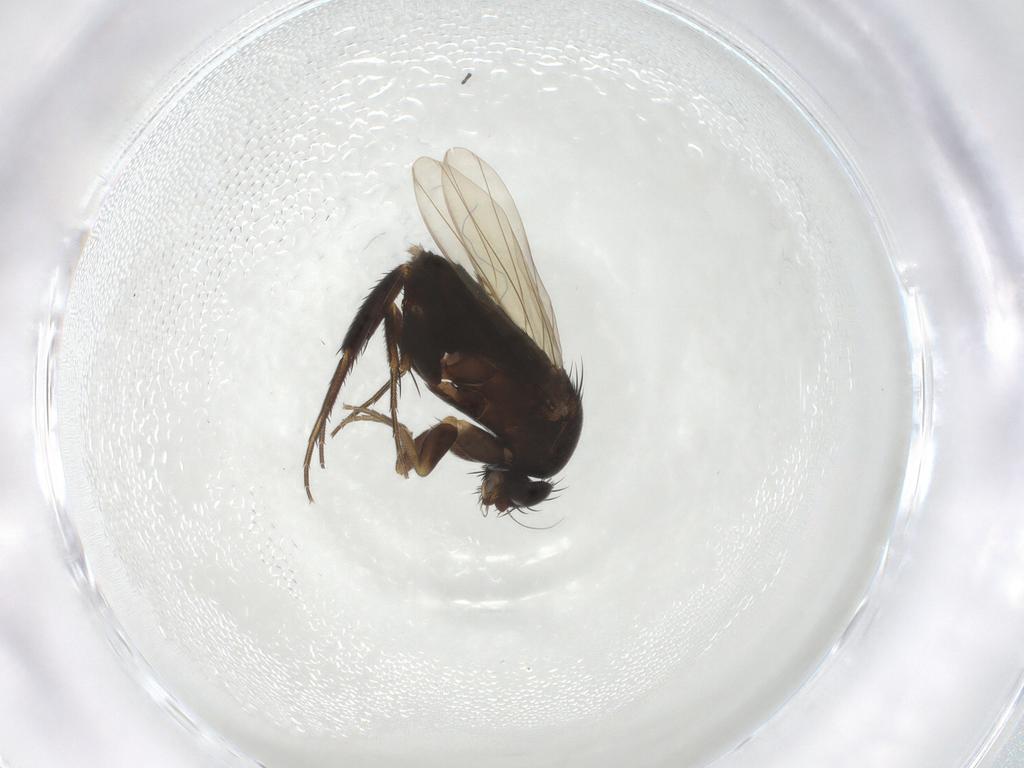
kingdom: Animalia
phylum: Arthropoda
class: Insecta
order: Diptera
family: Phoridae
